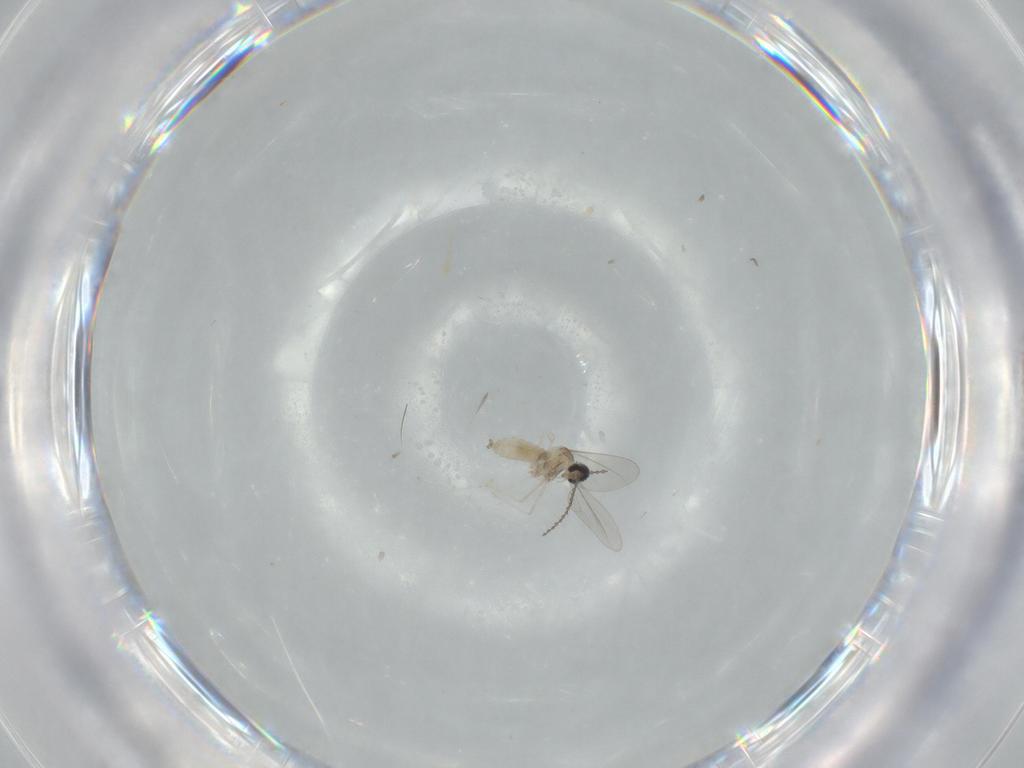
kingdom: Animalia
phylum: Arthropoda
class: Insecta
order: Diptera
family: Cecidomyiidae
